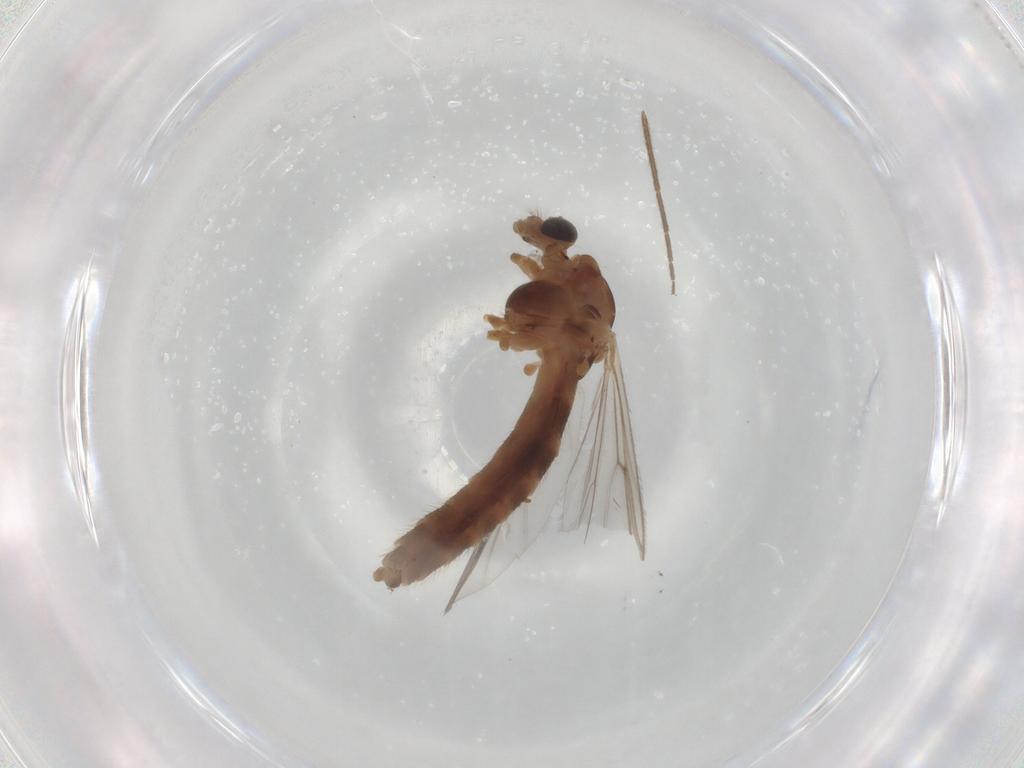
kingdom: Animalia
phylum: Arthropoda
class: Insecta
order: Diptera
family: Chironomidae
